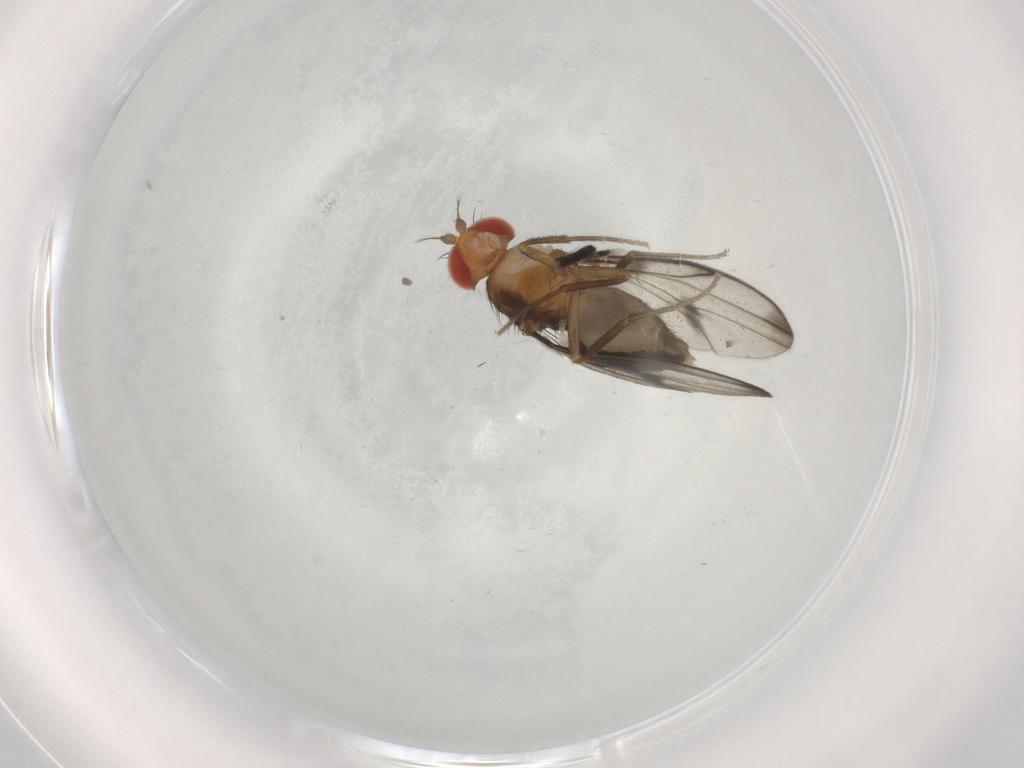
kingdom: Animalia
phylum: Arthropoda
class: Insecta
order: Diptera
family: Drosophilidae
